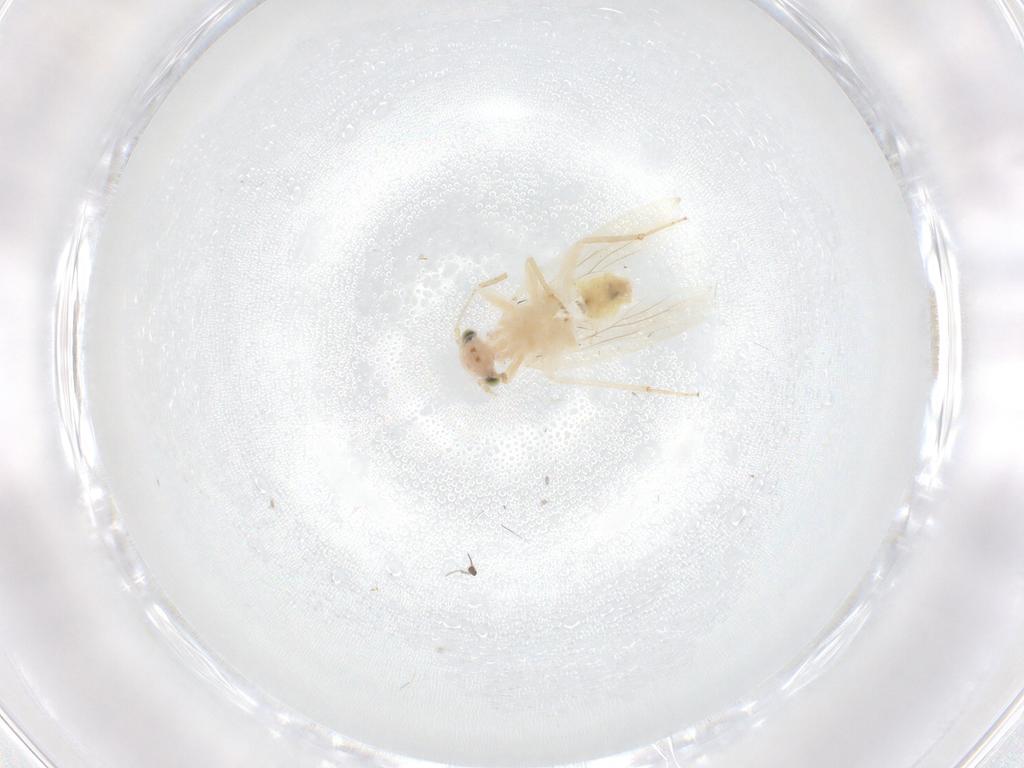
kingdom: Animalia
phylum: Arthropoda
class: Insecta
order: Psocodea
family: Lepidopsocidae
